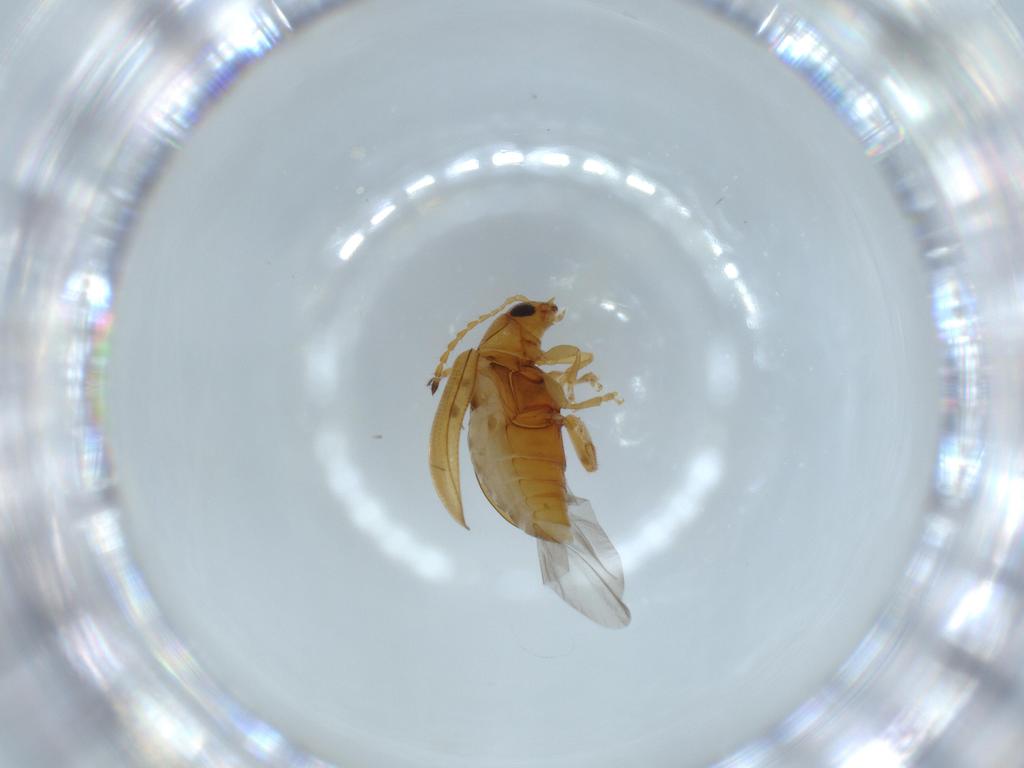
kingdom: Animalia
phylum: Arthropoda
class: Insecta
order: Coleoptera
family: Chrysomelidae
